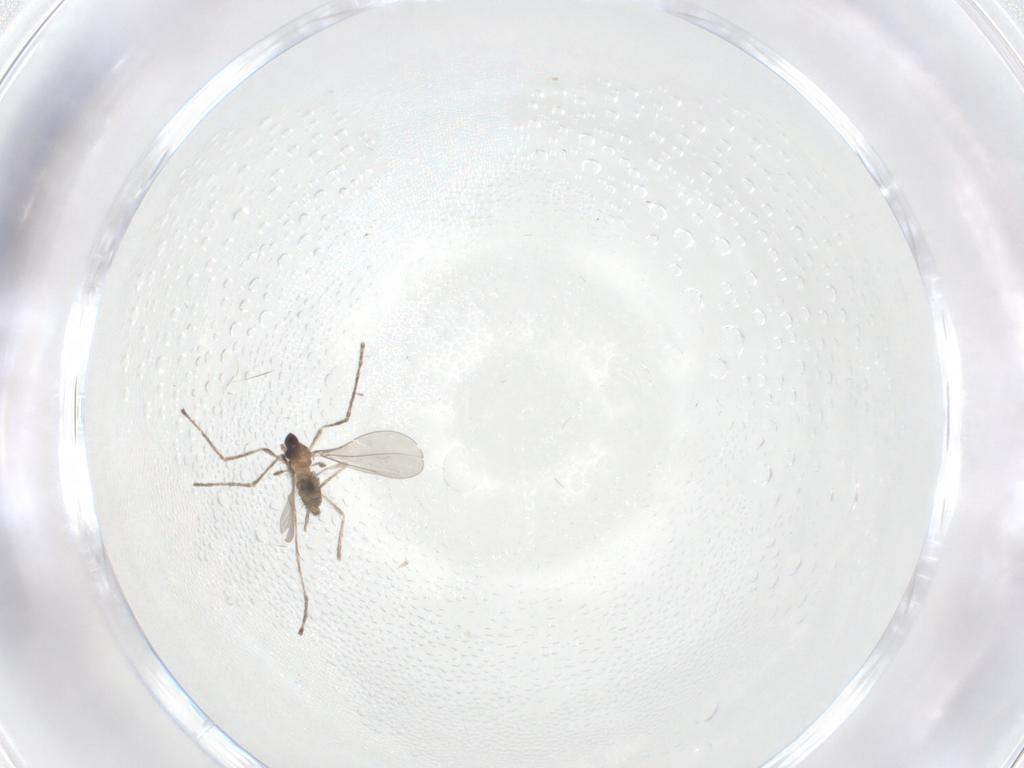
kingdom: Animalia
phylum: Arthropoda
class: Insecta
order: Diptera
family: Cecidomyiidae
